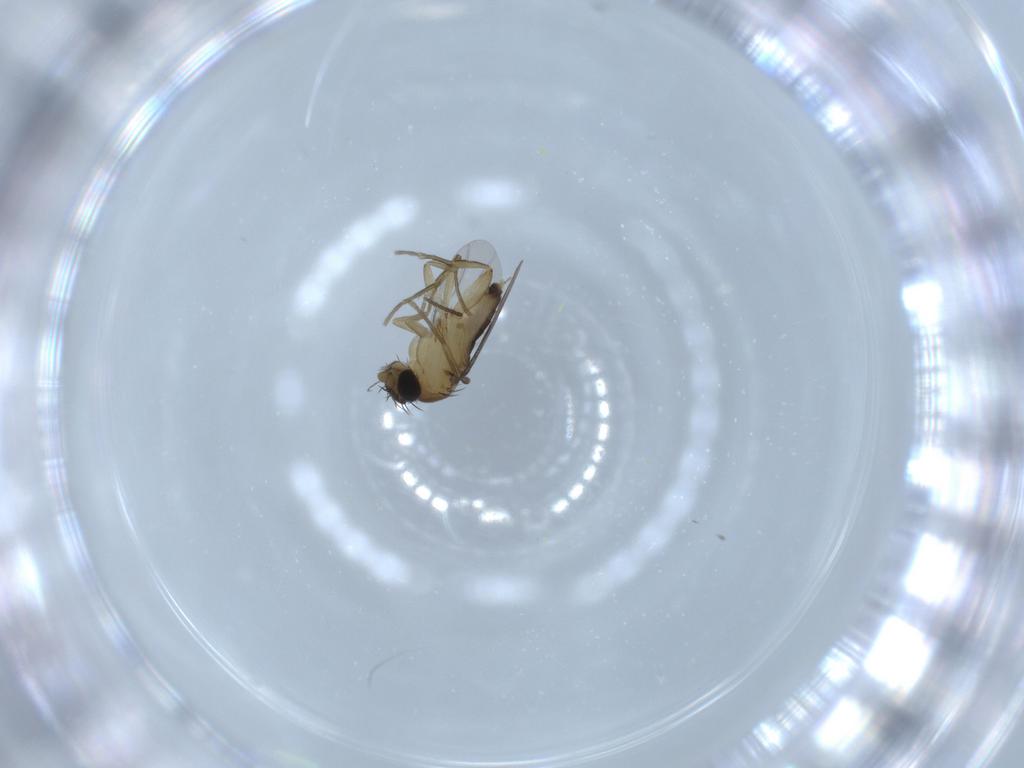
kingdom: Animalia
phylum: Arthropoda
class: Insecta
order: Diptera
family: Phoridae
